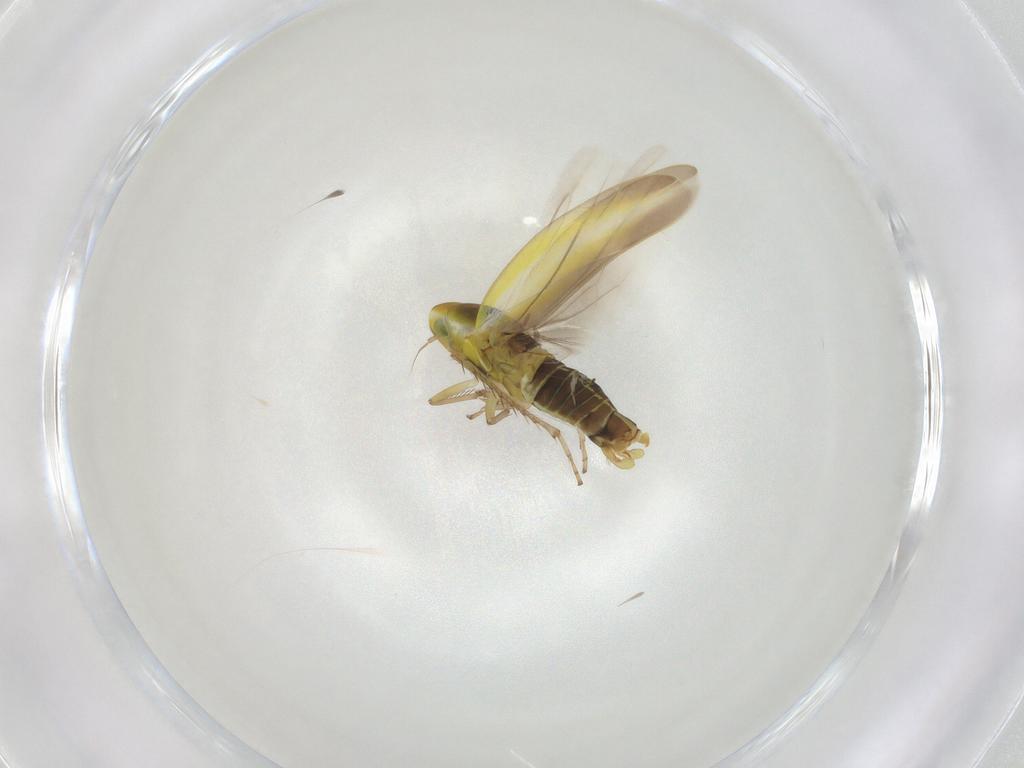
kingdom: Animalia
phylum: Arthropoda
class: Insecta
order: Hemiptera
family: Cicadellidae
